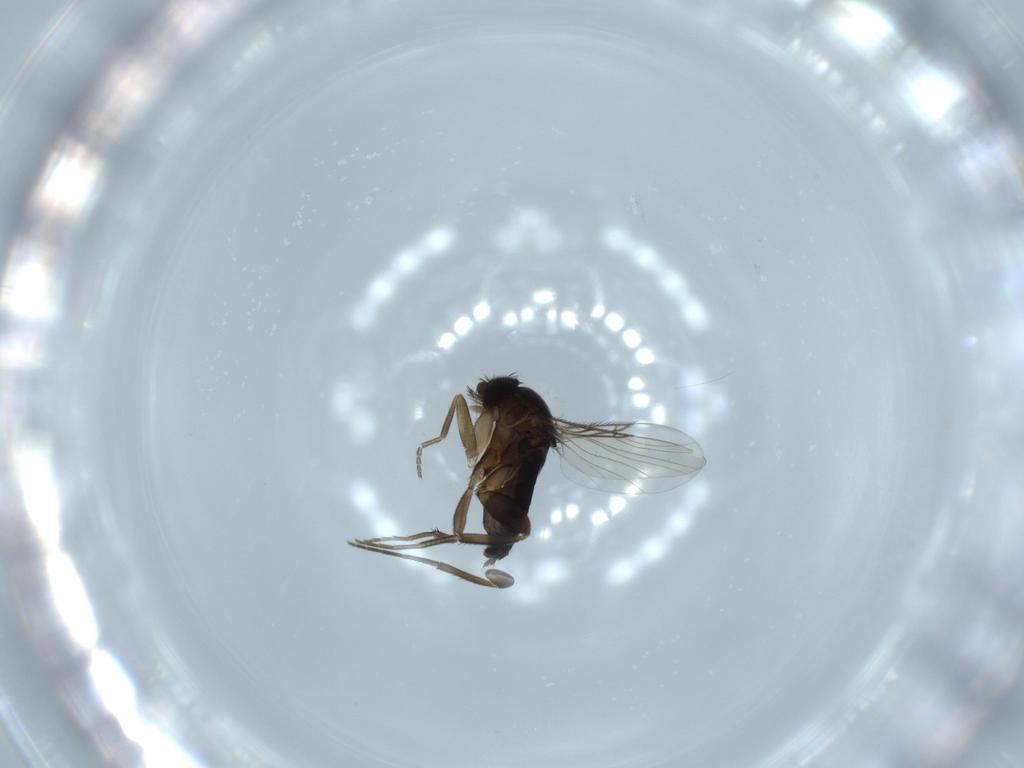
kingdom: Animalia
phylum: Arthropoda
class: Insecta
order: Diptera
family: Phoridae
